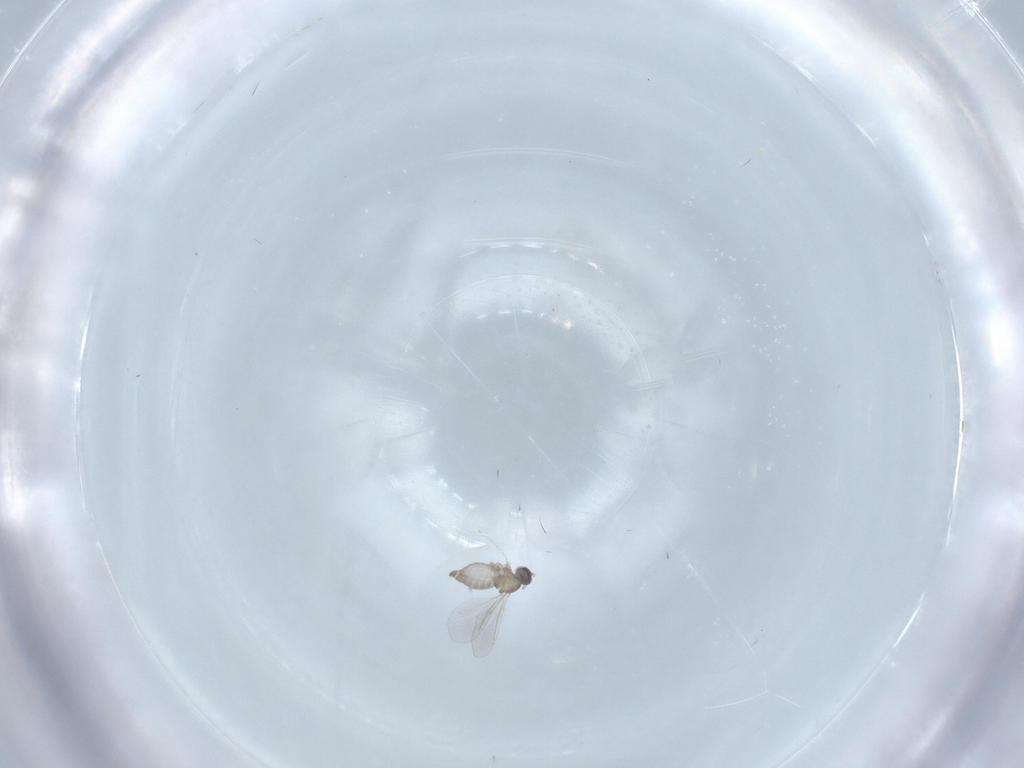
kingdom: Animalia
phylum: Arthropoda
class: Insecta
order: Diptera
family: Cecidomyiidae
